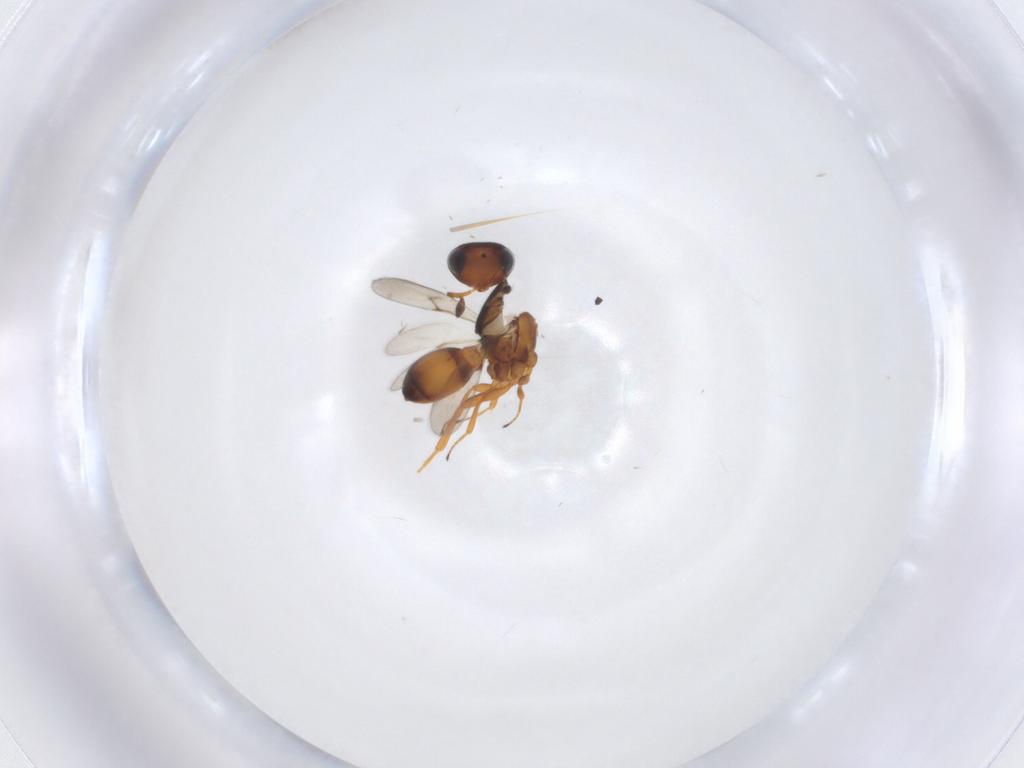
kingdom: Animalia
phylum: Arthropoda
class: Arachnida
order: Araneae
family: Pholcidae
